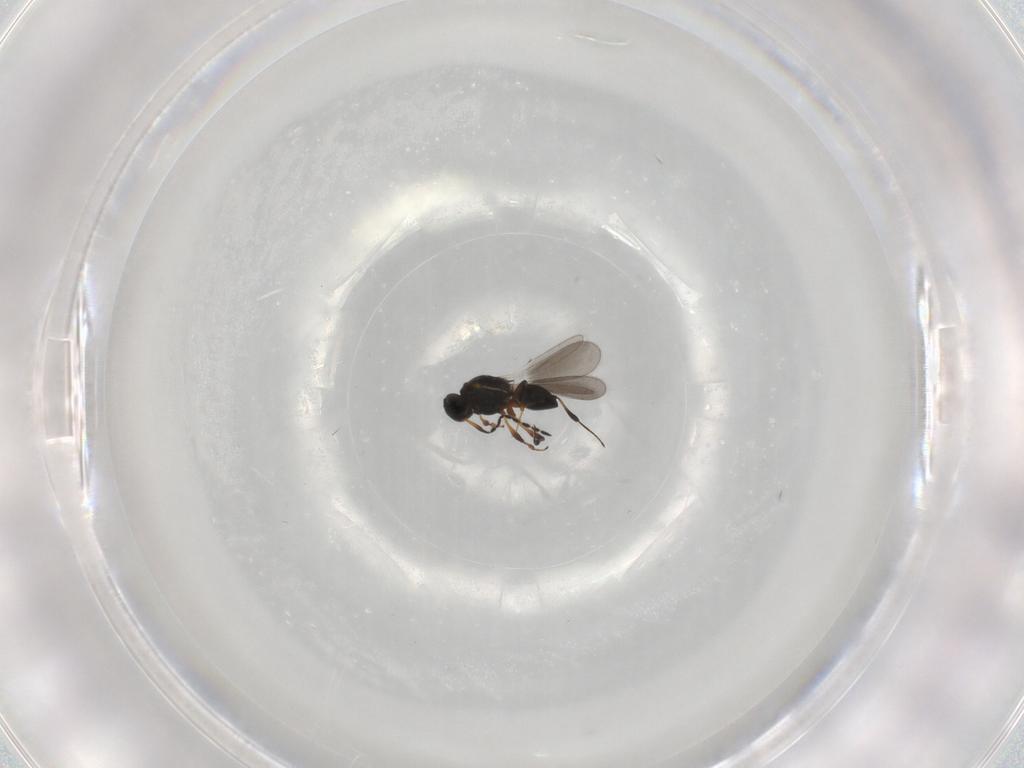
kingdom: Animalia
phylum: Arthropoda
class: Insecta
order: Hymenoptera
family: Platygastridae
